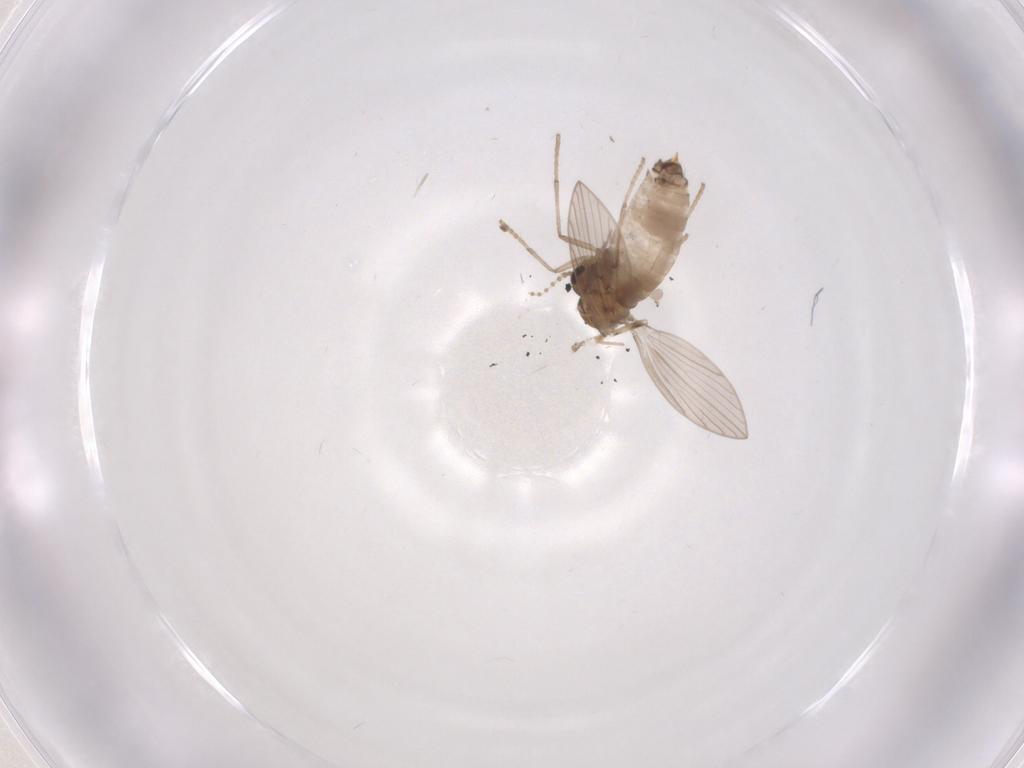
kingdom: Animalia
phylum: Arthropoda
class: Insecta
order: Diptera
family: Psychodidae
